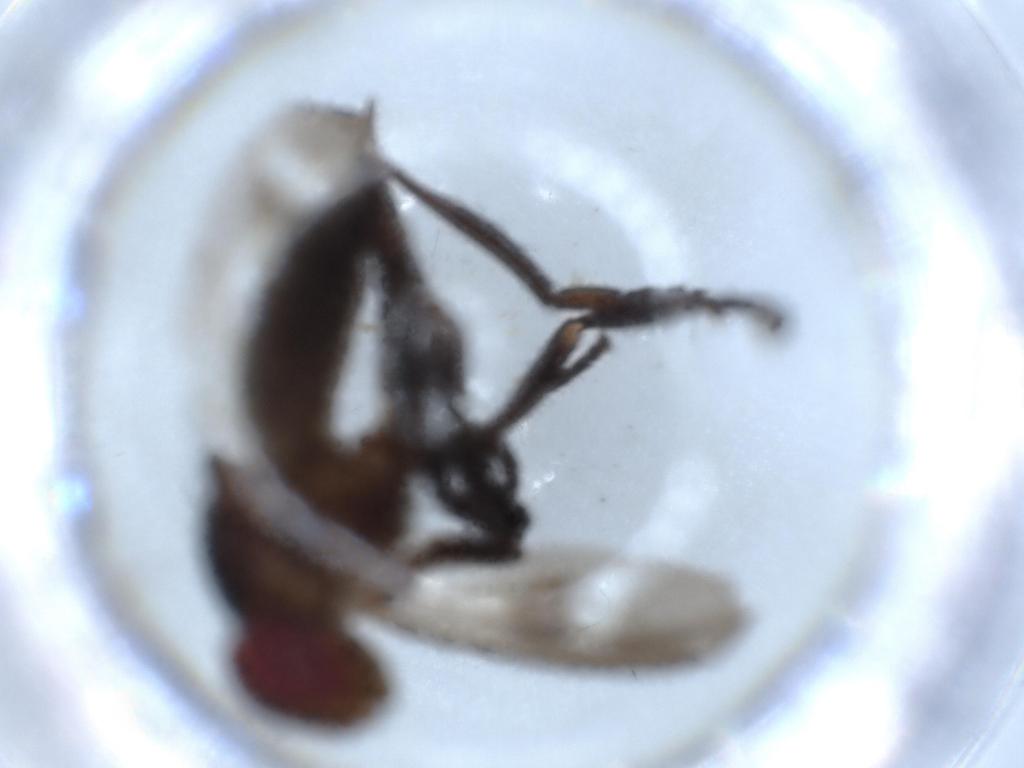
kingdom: Animalia
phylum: Arthropoda
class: Insecta
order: Diptera
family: Calliphoridae
